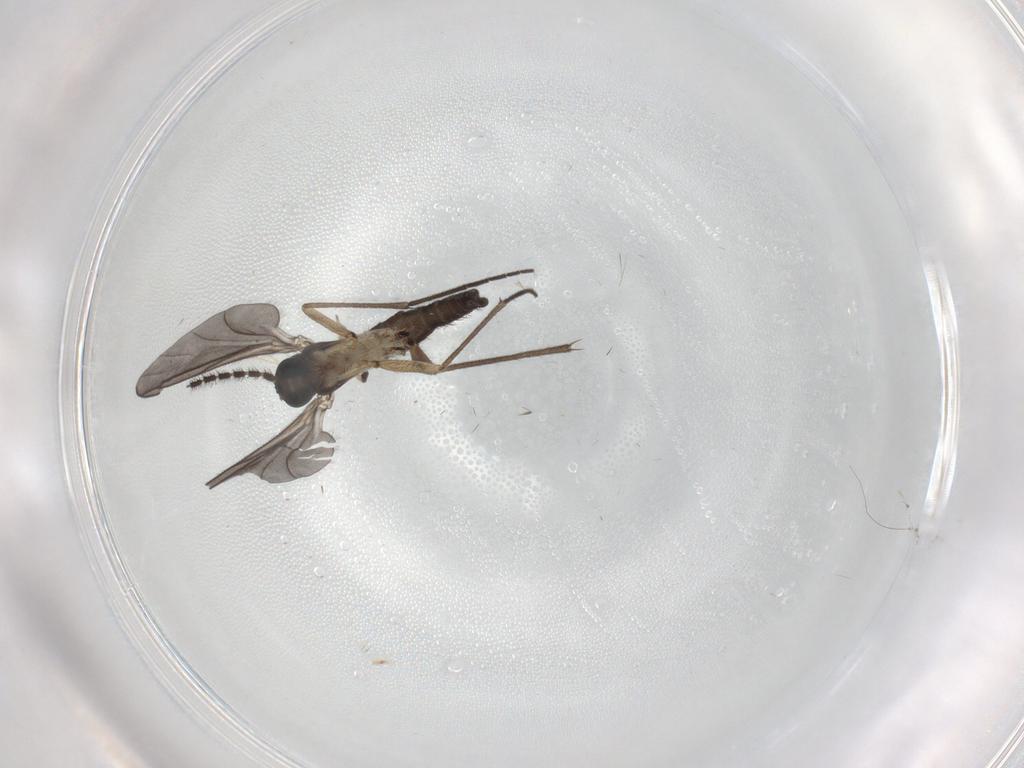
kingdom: Animalia
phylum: Arthropoda
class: Insecta
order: Diptera
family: Sciaridae
